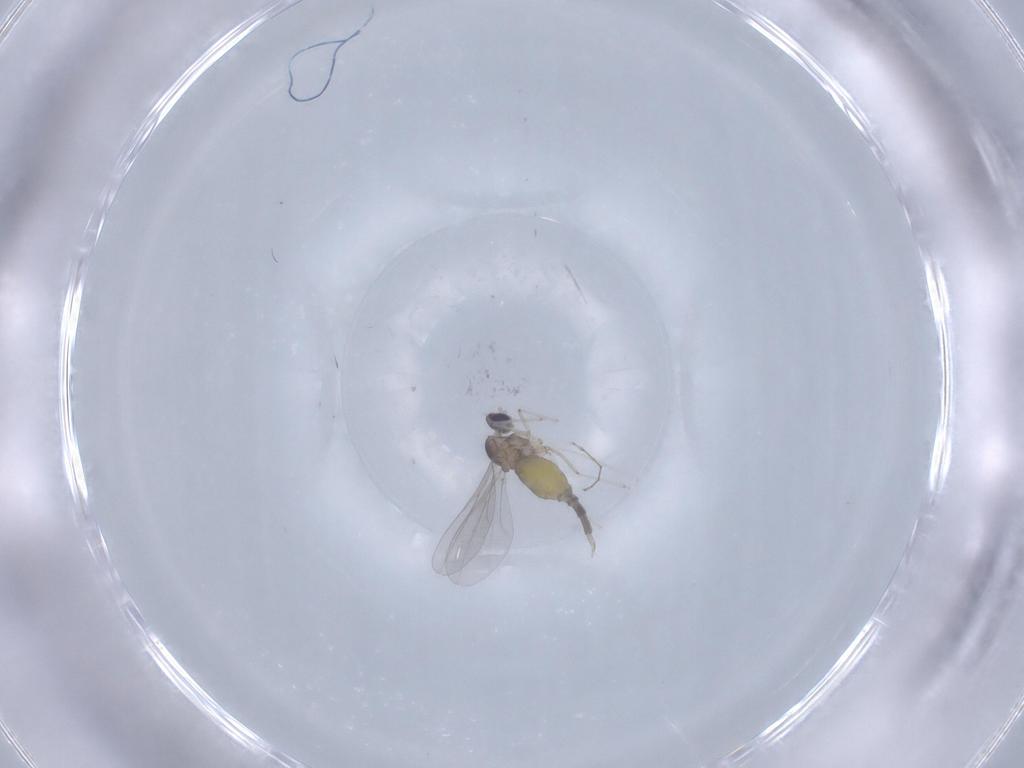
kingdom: Animalia
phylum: Arthropoda
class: Insecta
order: Diptera
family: Cecidomyiidae
